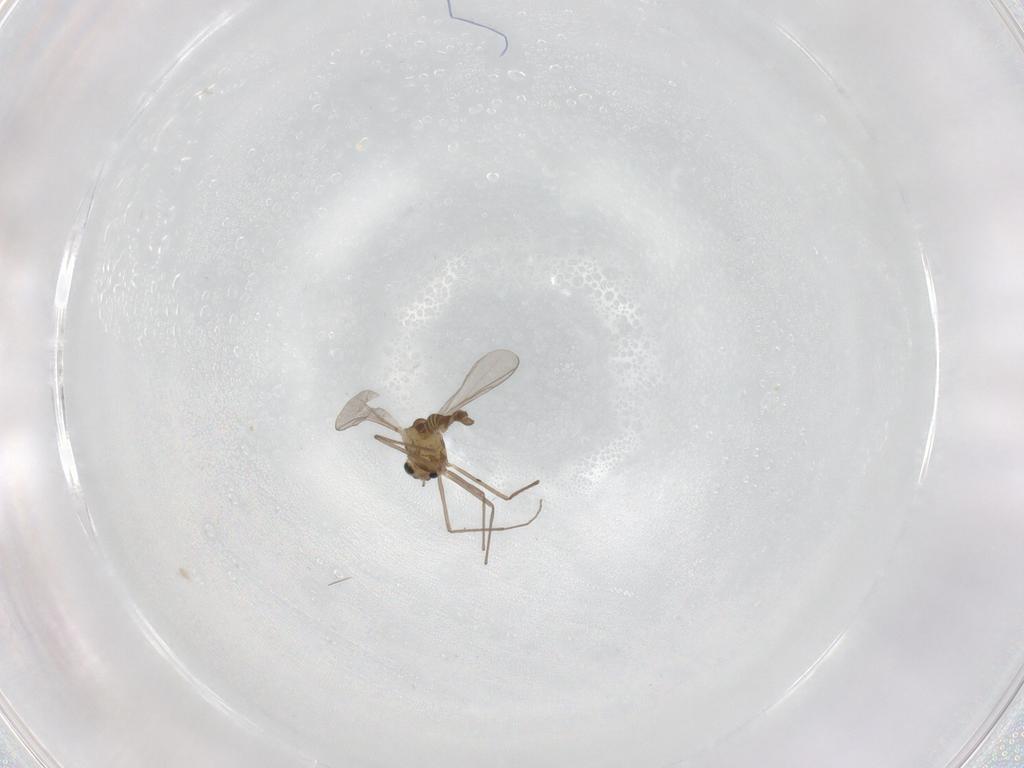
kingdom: Animalia
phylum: Arthropoda
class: Insecta
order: Diptera
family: Chironomidae
